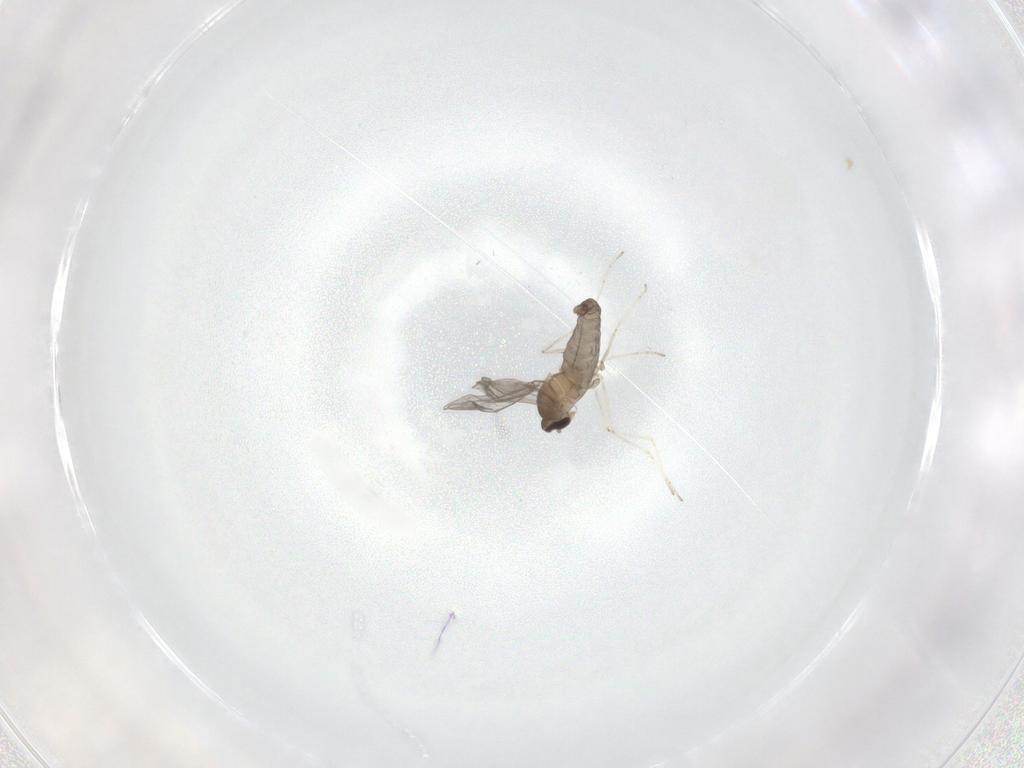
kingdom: Animalia
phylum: Arthropoda
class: Insecta
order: Diptera
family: Cecidomyiidae
